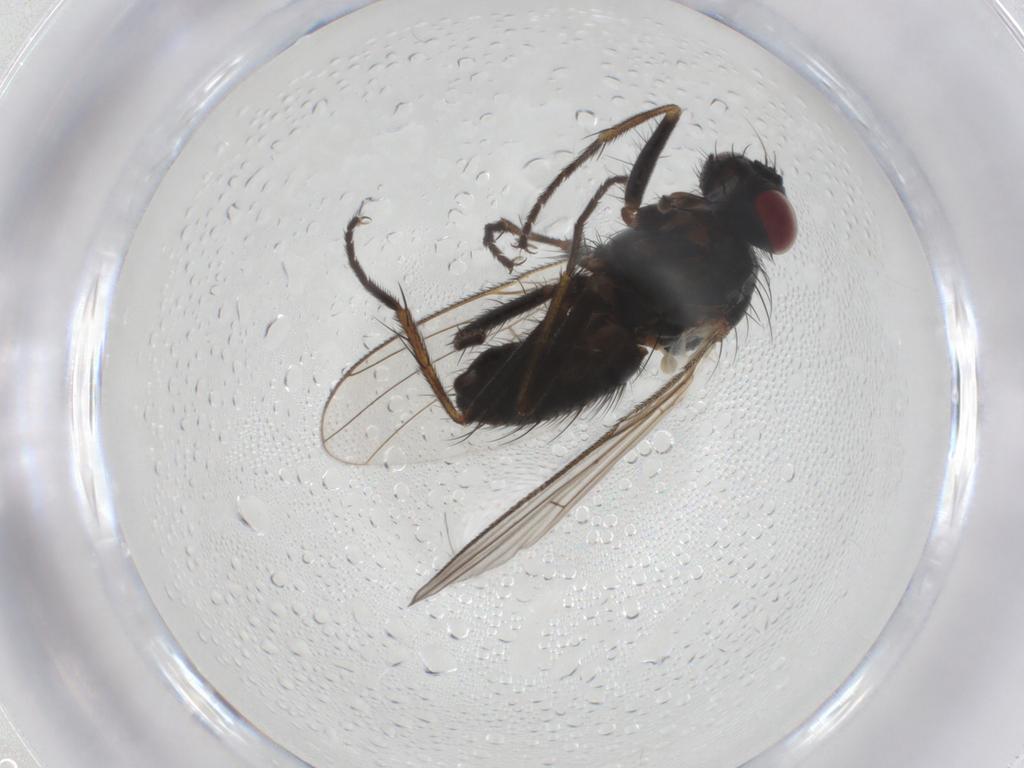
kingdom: Animalia
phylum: Arthropoda
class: Insecta
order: Diptera
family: Muscidae
